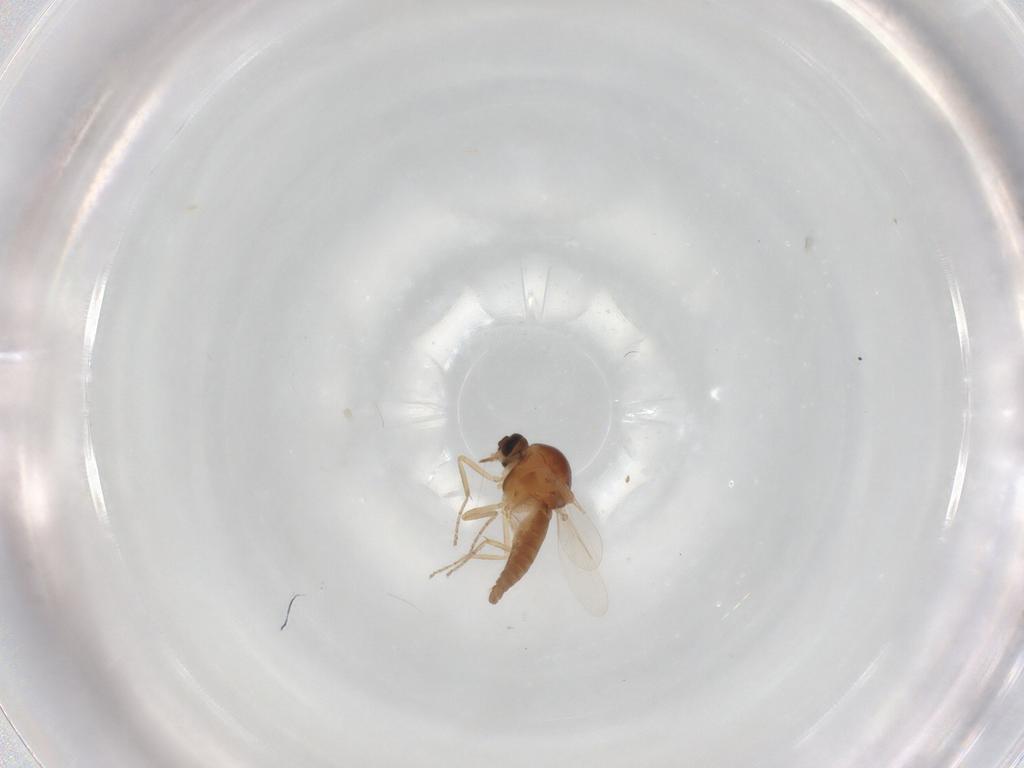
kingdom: Animalia
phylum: Arthropoda
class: Insecta
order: Diptera
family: Ceratopogonidae
